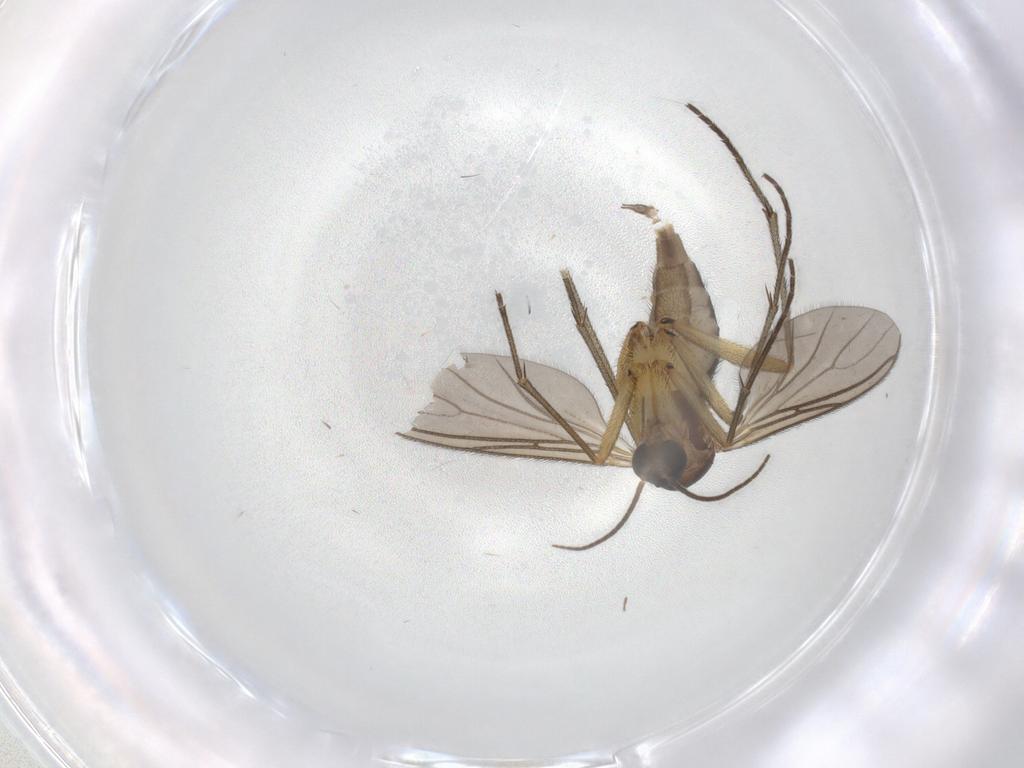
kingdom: Animalia
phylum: Arthropoda
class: Insecta
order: Diptera
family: Sciaridae
